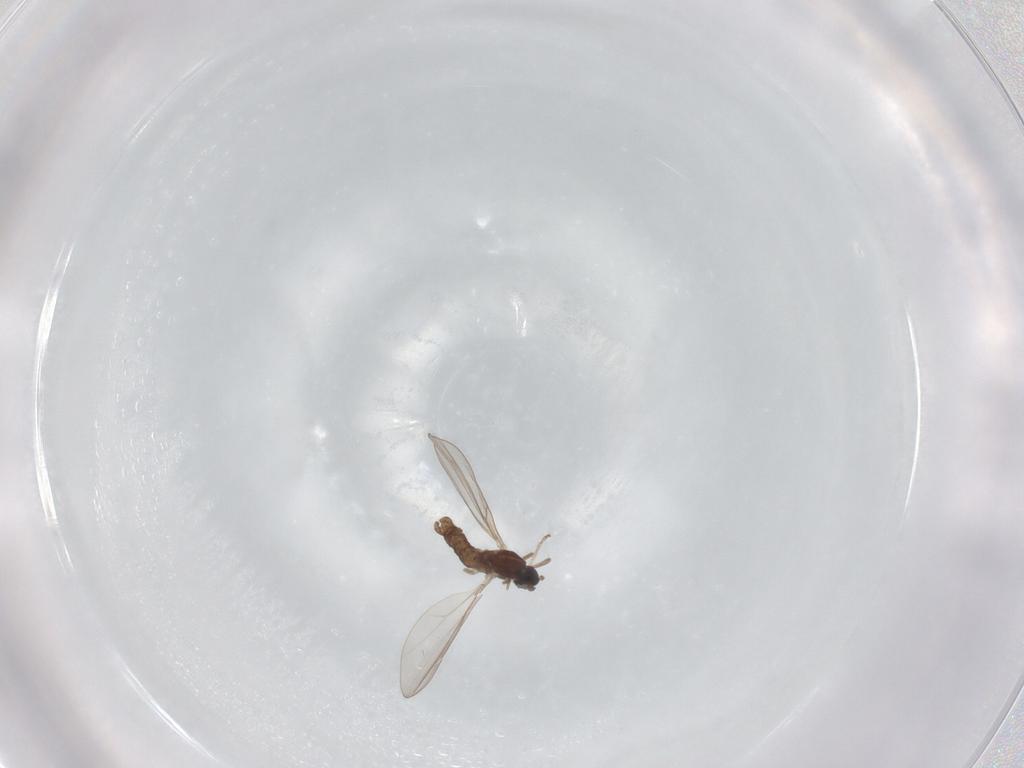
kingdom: Animalia
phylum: Arthropoda
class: Insecta
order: Diptera
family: Cecidomyiidae
